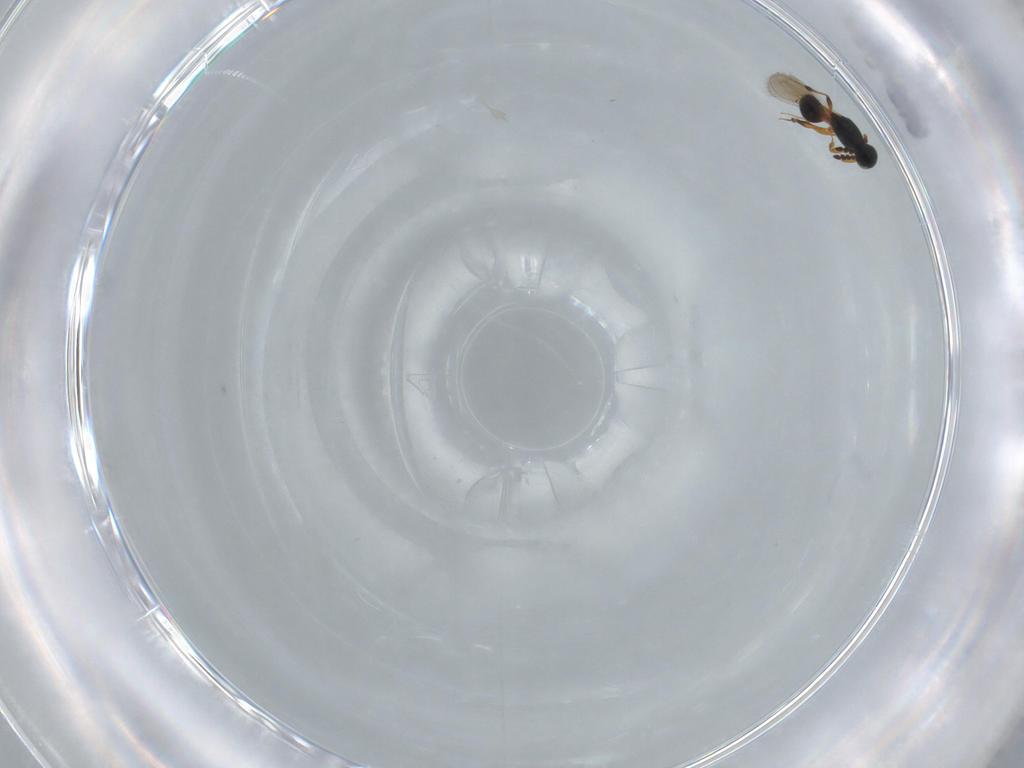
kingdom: Animalia
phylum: Arthropoda
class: Insecta
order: Hymenoptera
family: Platygastridae
